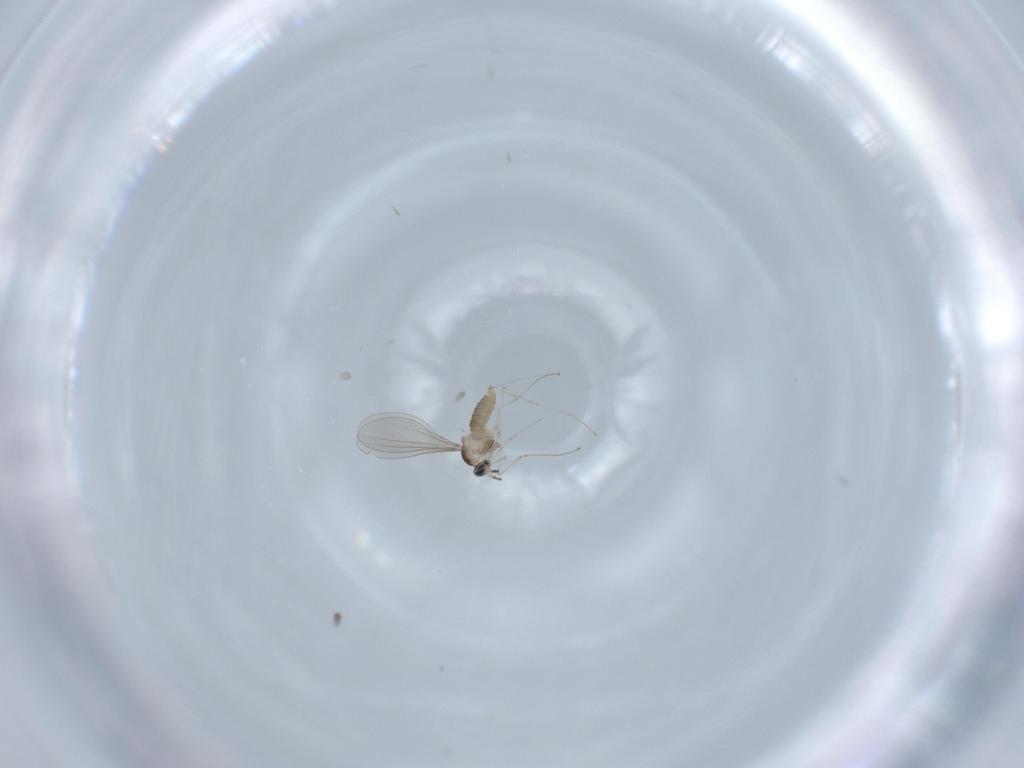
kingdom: Animalia
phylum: Arthropoda
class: Insecta
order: Diptera
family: Cecidomyiidae
